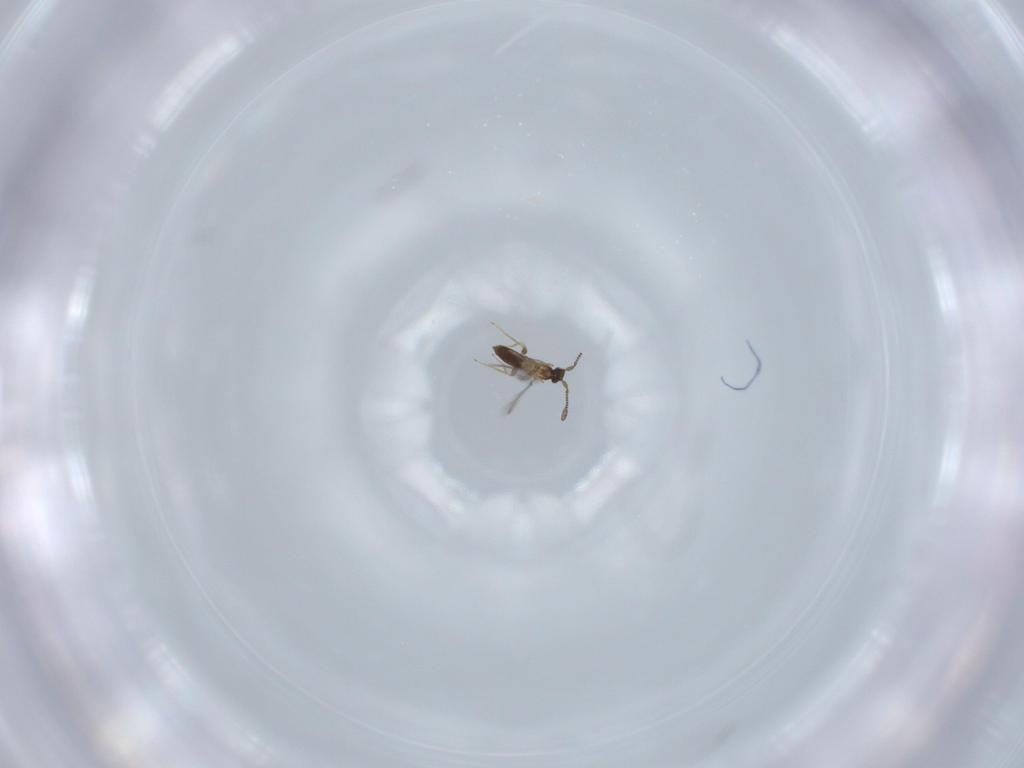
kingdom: Animalia
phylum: Arthropoda
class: Insecta
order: Hymenoptera
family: Mymaridae
